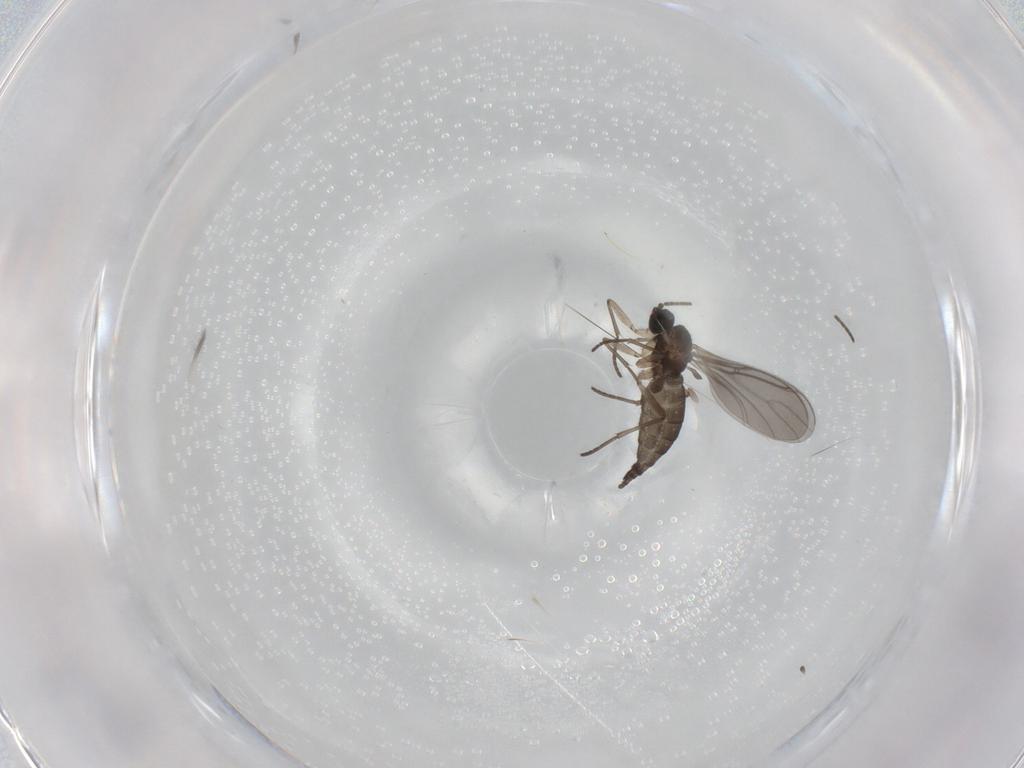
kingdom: Animalia
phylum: Arthropoda
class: Insecta
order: Diptera
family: Sciaridae
